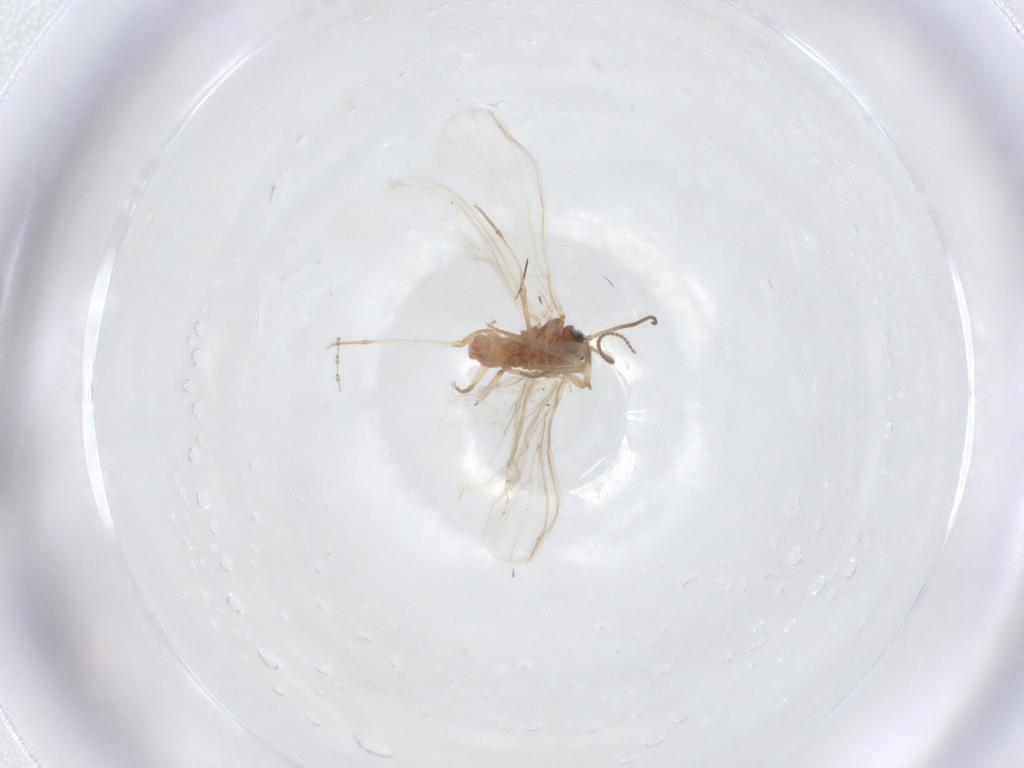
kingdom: Animalia
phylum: Arthropoda
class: Insecta
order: Neuroptera
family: Coniopterygidae
